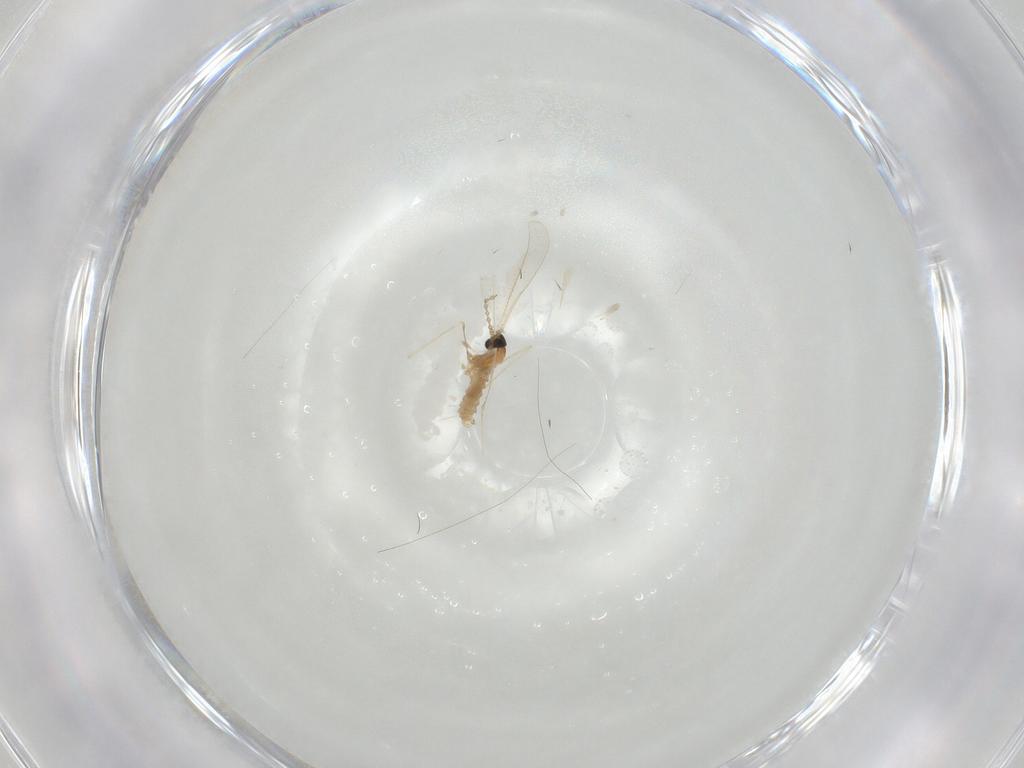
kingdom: Animalia
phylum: Arthropoda
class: Insecta
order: Diptera
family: Cecidomyiidae
